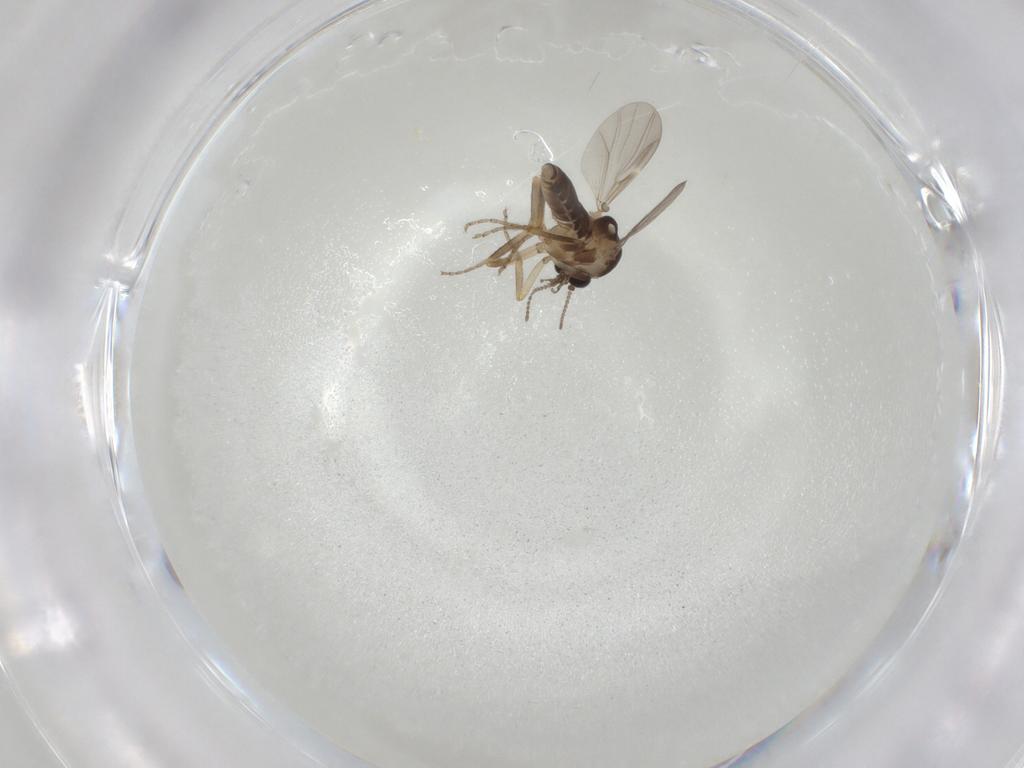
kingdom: Animalia
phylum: Arthropoda
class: Insecta
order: Diptera
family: Ceratopogonidae
